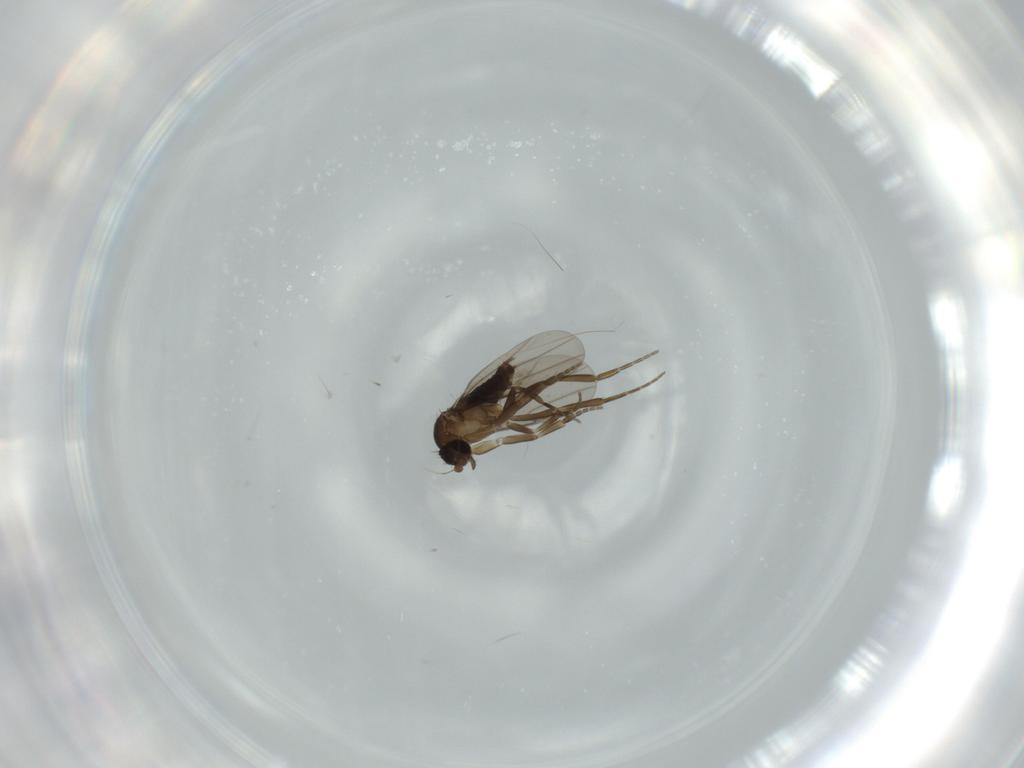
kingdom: Animalia
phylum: Arthropoda
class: Insecta
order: Diptera
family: Phoridae
